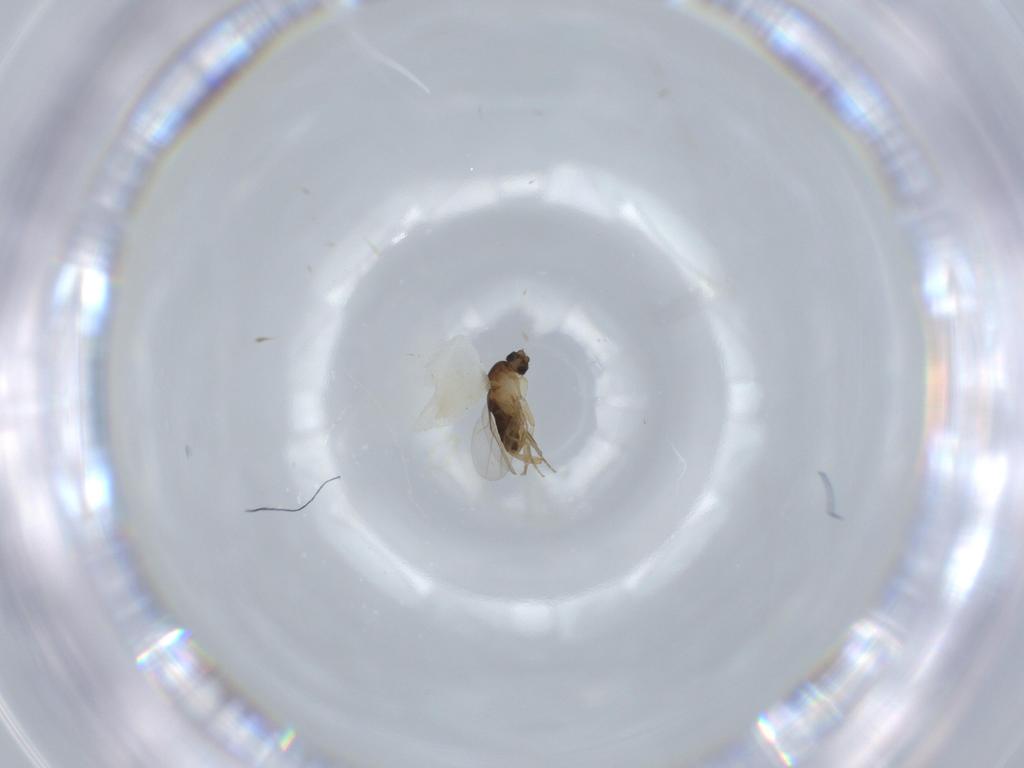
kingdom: Animalia
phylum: Arthropoda
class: Insecta
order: Diptera
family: Phoridae
